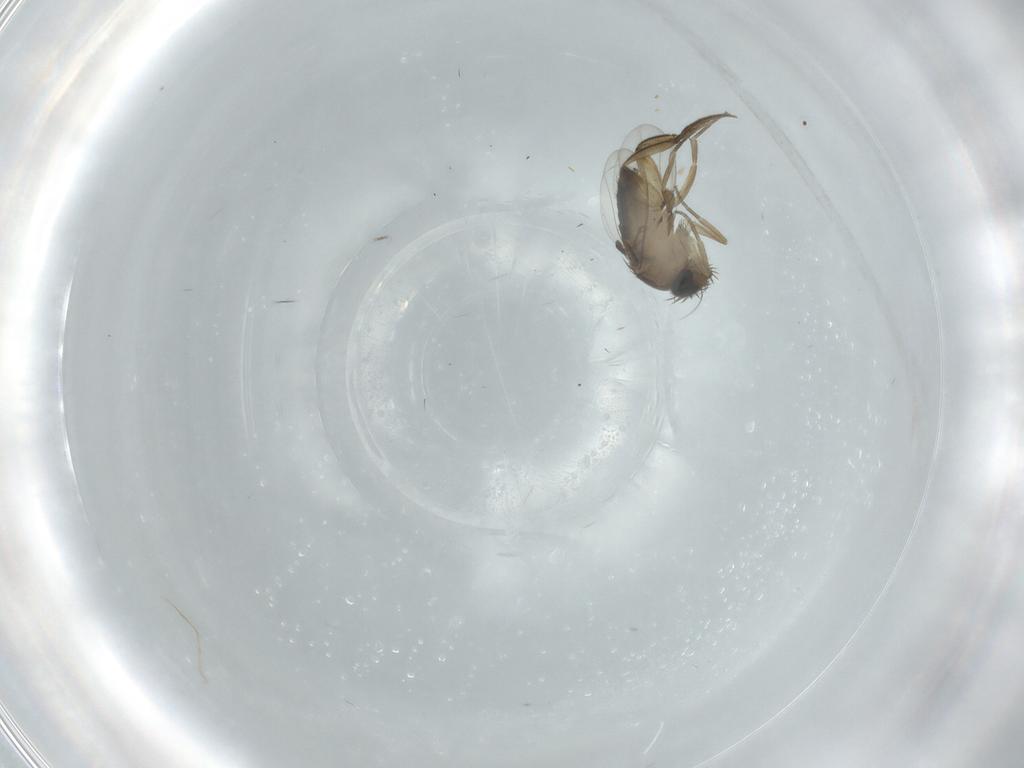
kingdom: Animalia
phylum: Arthropoda
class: Insecta
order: Diptera
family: Phoridae
